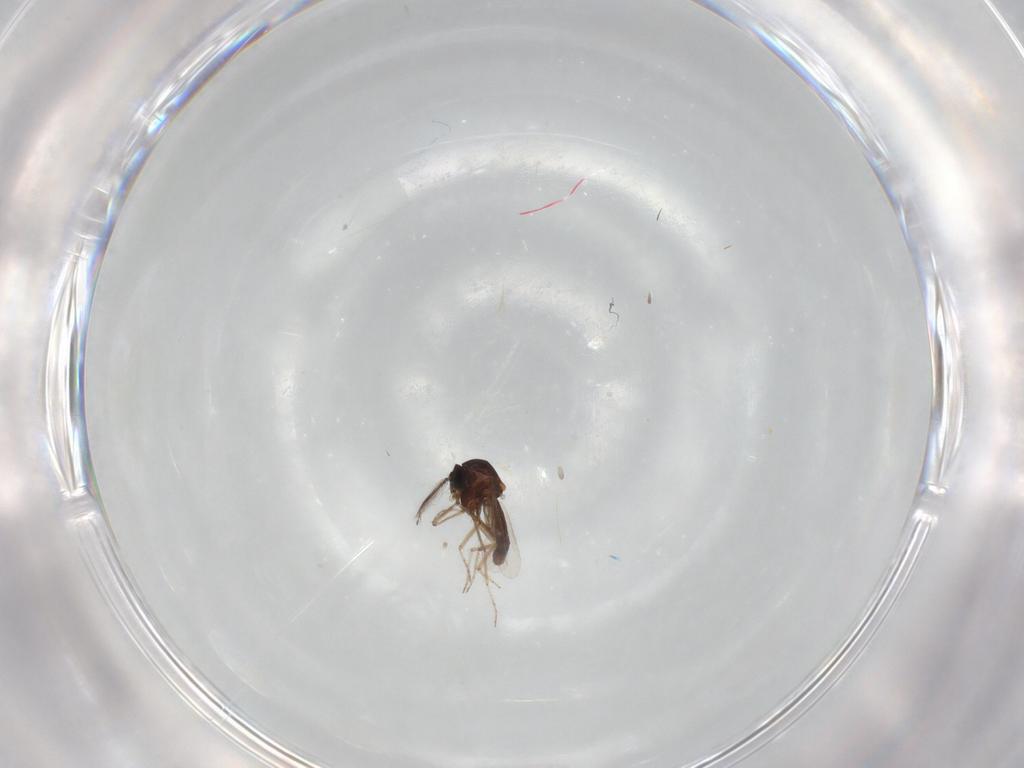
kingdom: Animalia
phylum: Arthropoda
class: Insecta
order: Diptera
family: Ceratopogonidae
